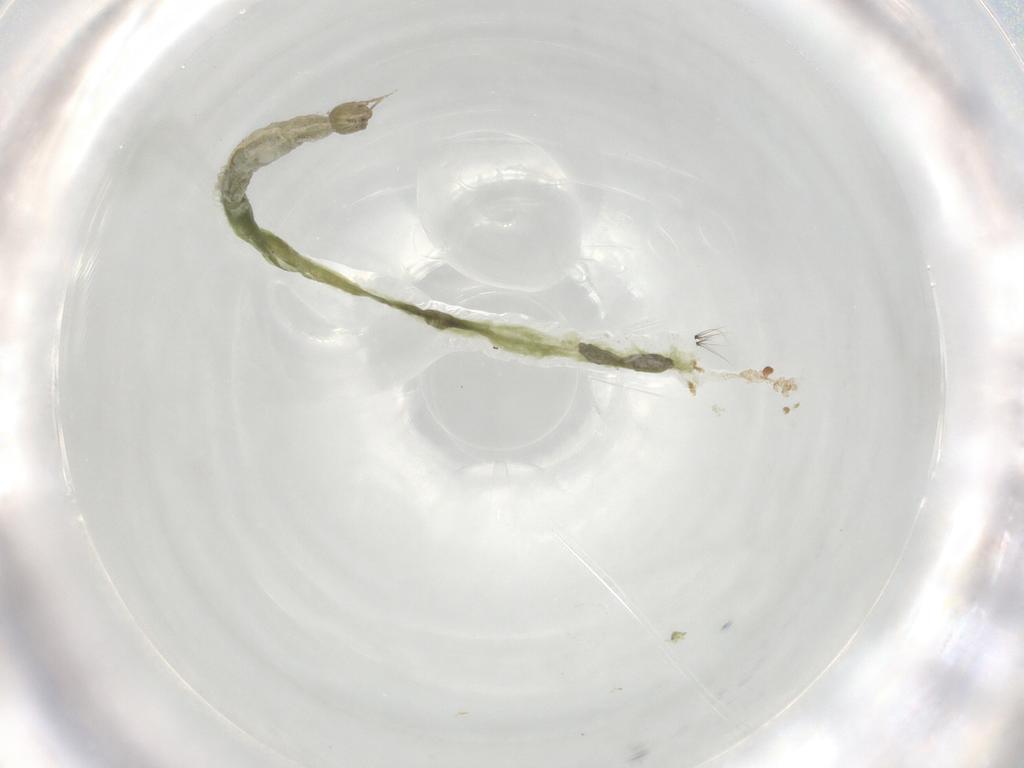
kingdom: Animalia
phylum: Arthropoda
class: Insecta
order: Diptera
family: Chironomidae
